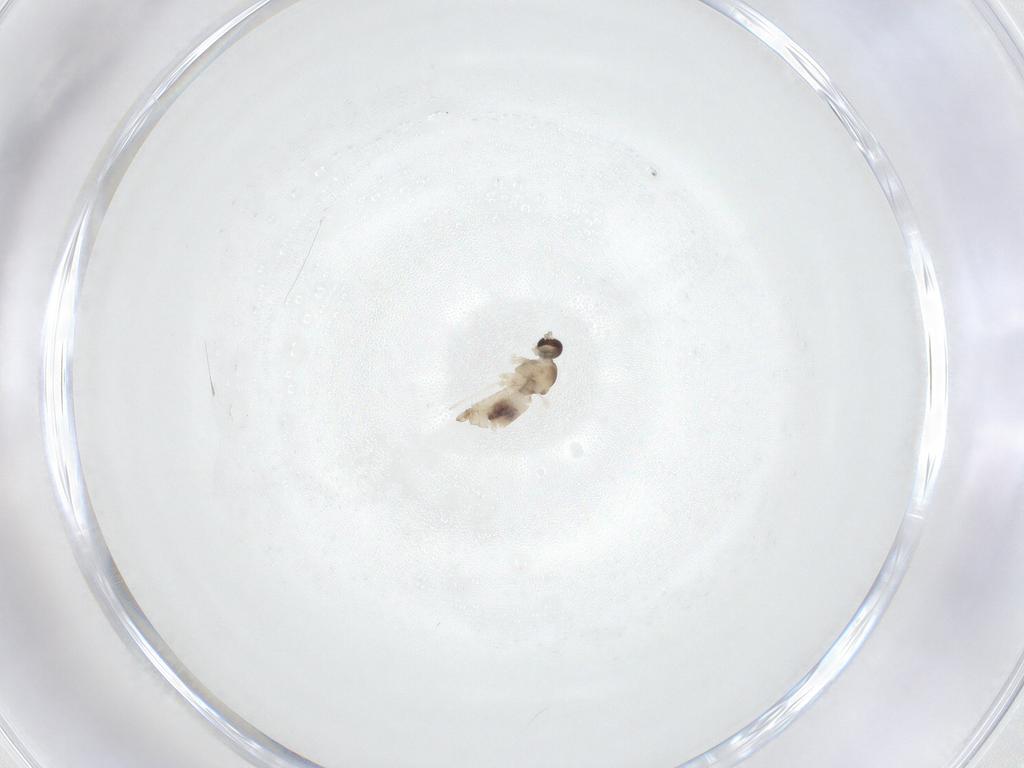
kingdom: Animalia
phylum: Arthropoda
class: Insecta
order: Diptera
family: Cecidomyiidae
